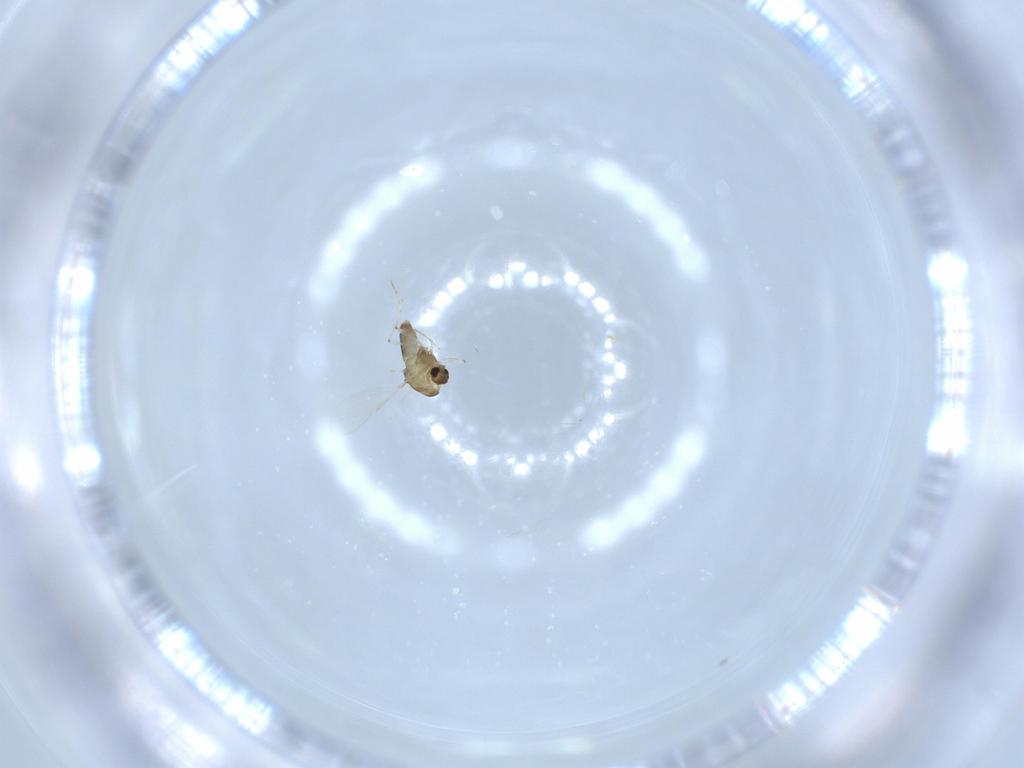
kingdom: Animalia
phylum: Arthropoda
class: Insecta
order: Diptera
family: Chironomidae
